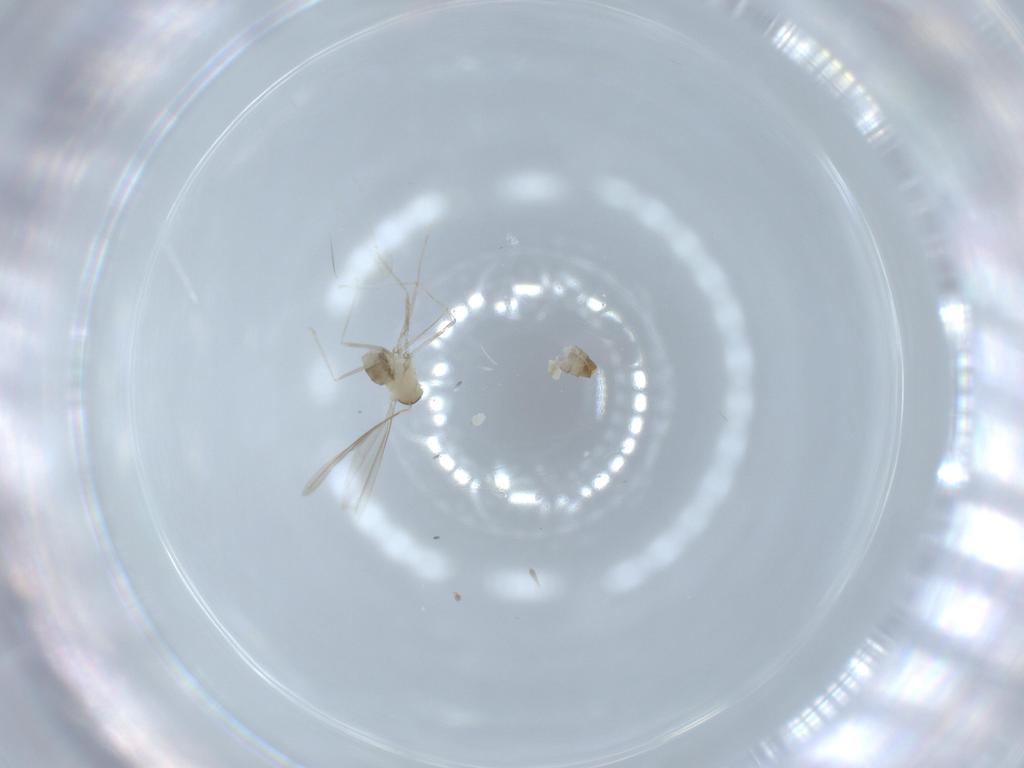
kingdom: Animalia
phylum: Arthropoda
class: Insecta
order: Diptera
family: Cecidomyiidae
